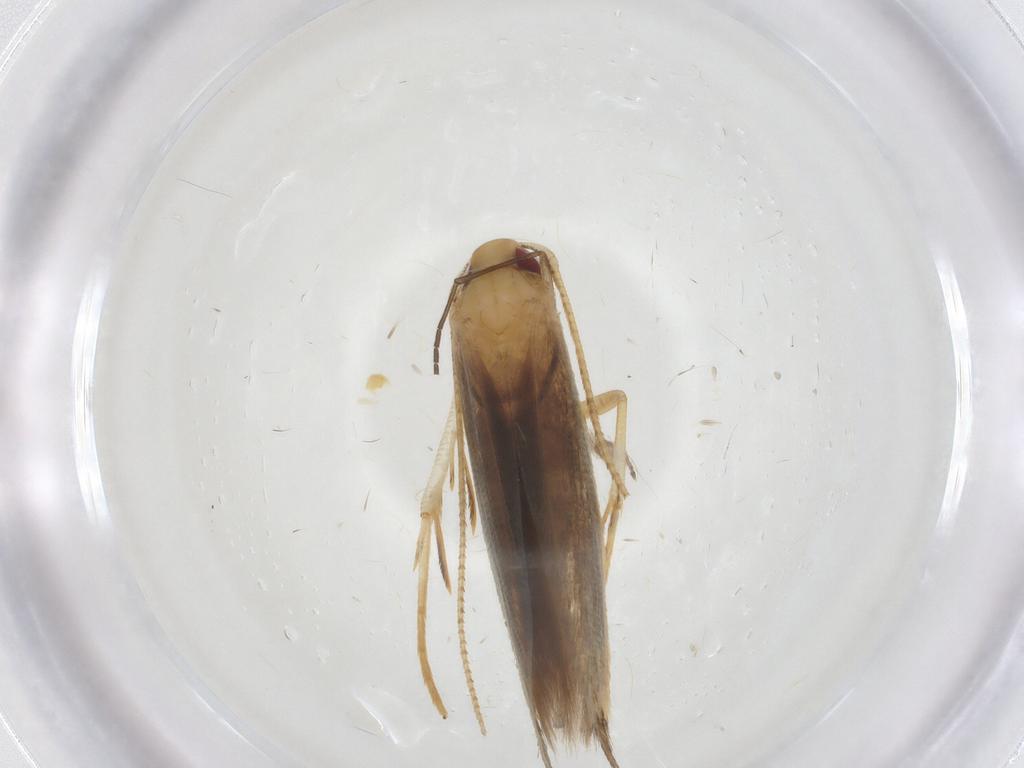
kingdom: Animalia
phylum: Arthropoda
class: Insecta
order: Lepidoptera
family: Cosmopterigidae
